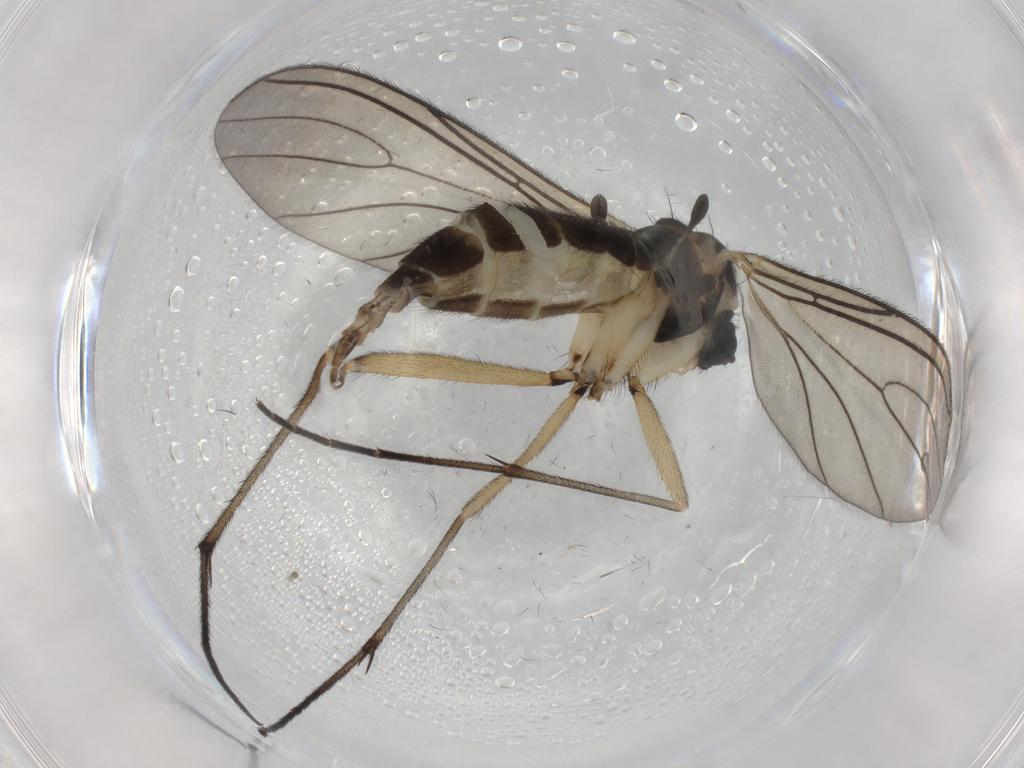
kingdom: Animalia
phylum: Arthropoda
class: Insecta
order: Diptera
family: Sciaridae
